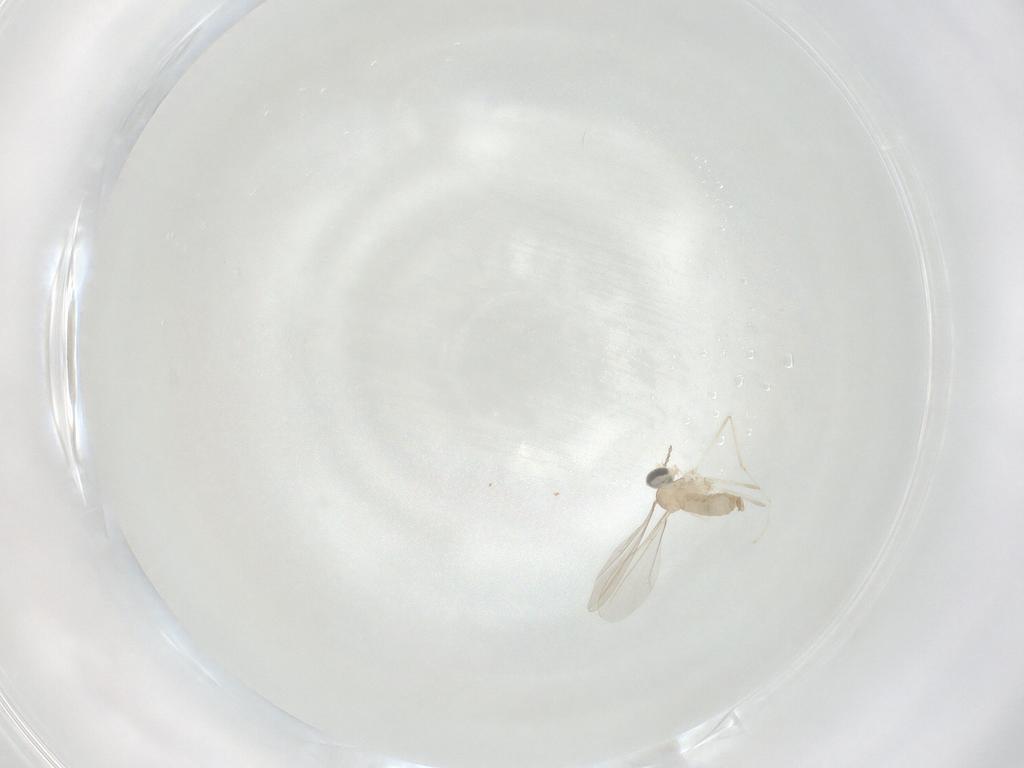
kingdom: Animalia
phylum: Arthropoda
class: Insecta
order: Diptera
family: Cecidomyiidae
